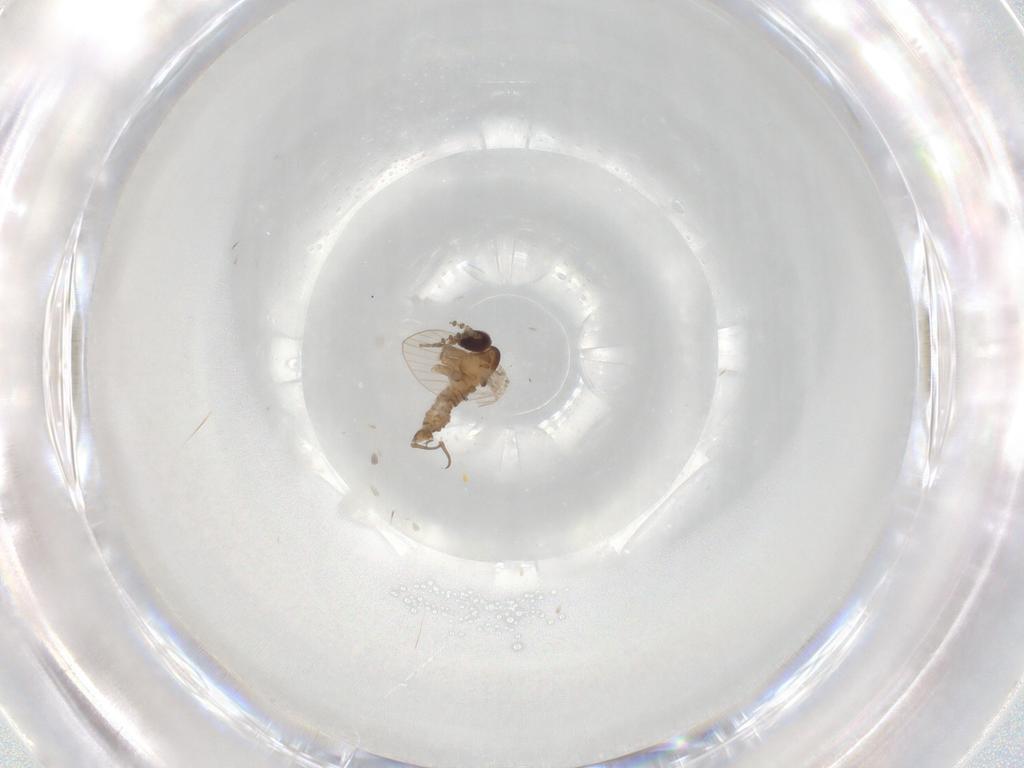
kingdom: Animalia
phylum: Arthropoda
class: Insecta
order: Diptera
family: Psychodidae
